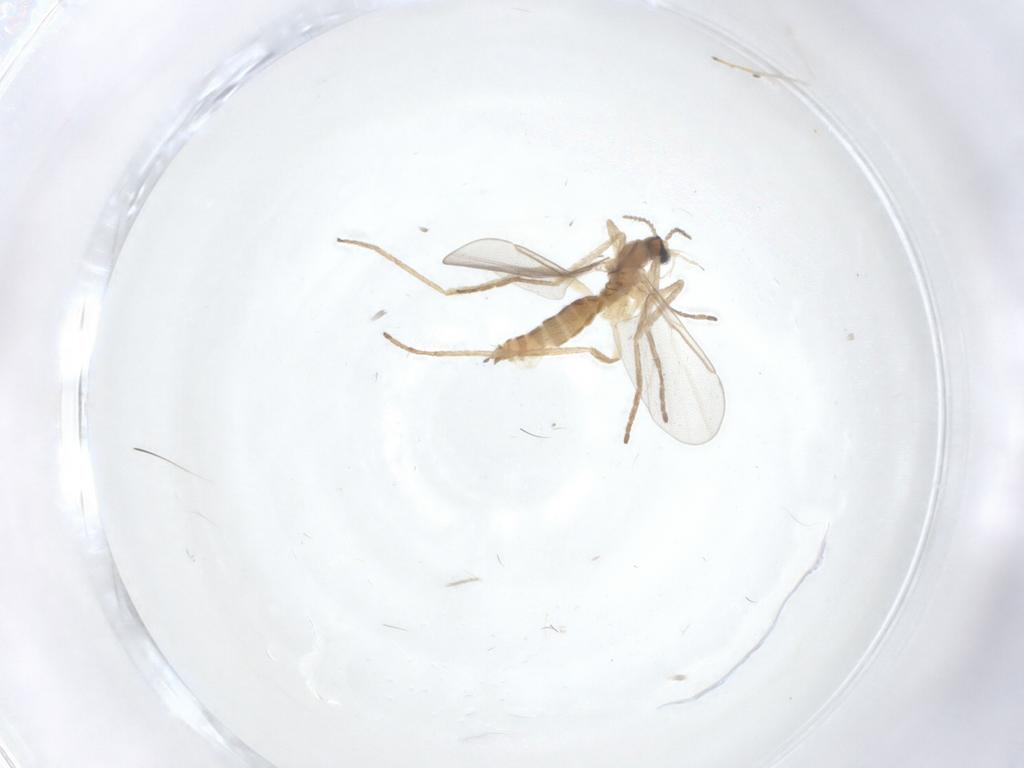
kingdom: Animalia
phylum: Arthropoda
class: Insecta
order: Diptera
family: Cecidomyiidae
